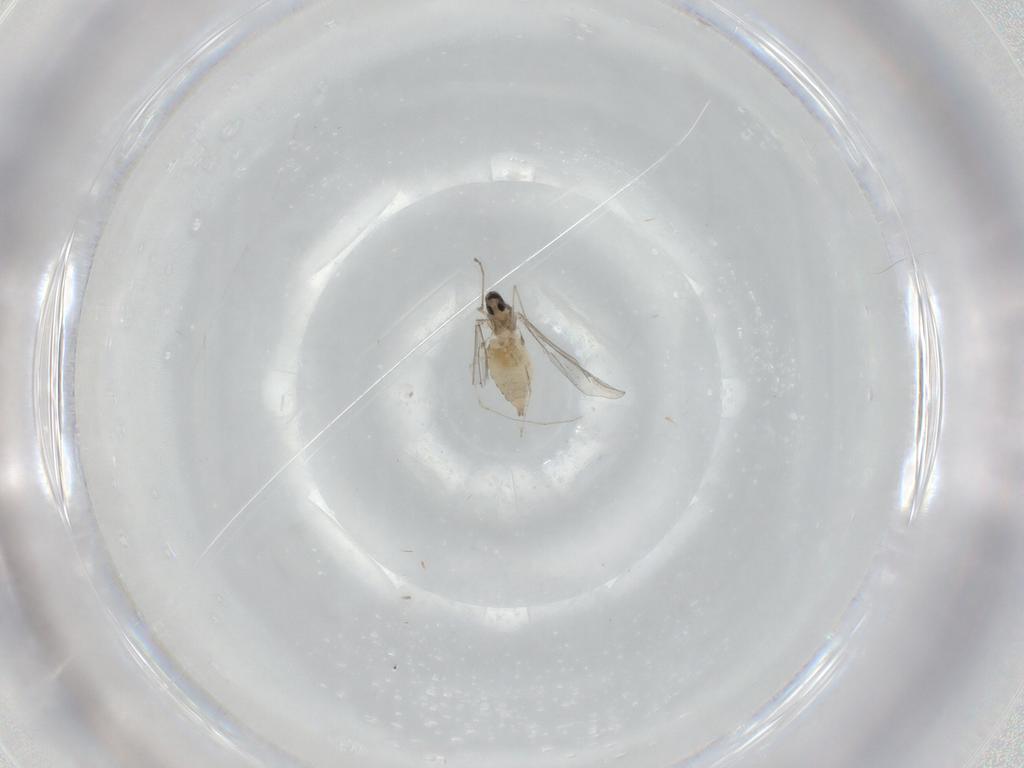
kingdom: Animalia
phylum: Arthropoda
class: Insecta
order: Diptera
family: Cecidomyiidae
